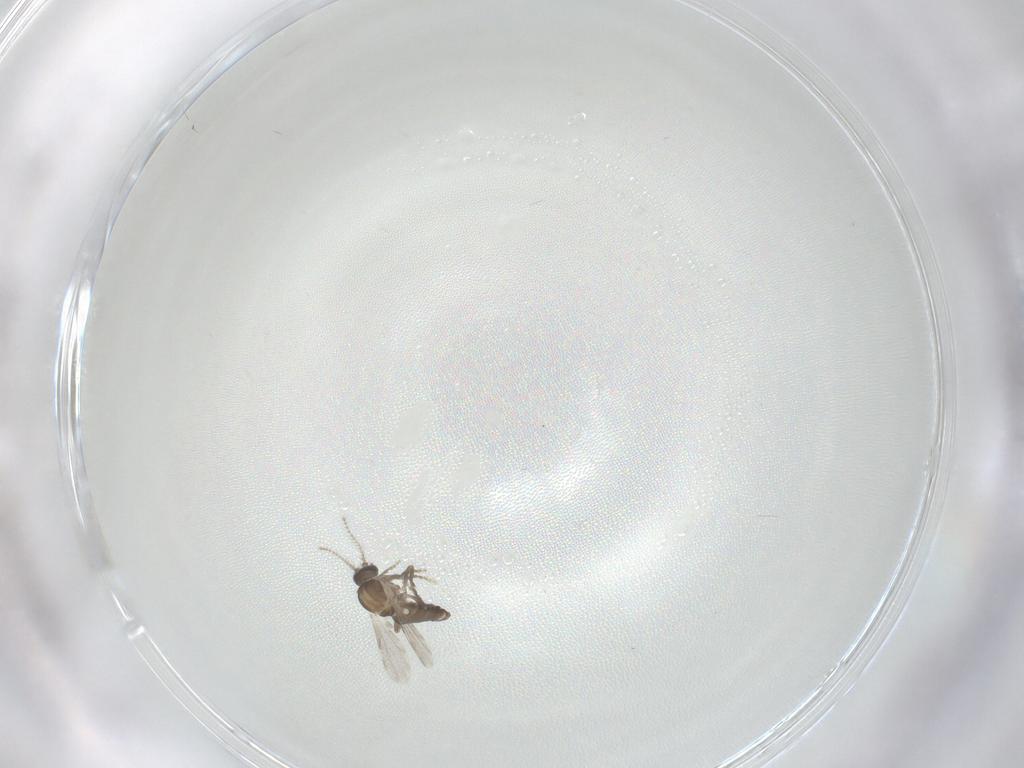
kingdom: Animalia
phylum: Arthropoda
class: Insecta
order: Diptera
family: Ceratopogonidae
